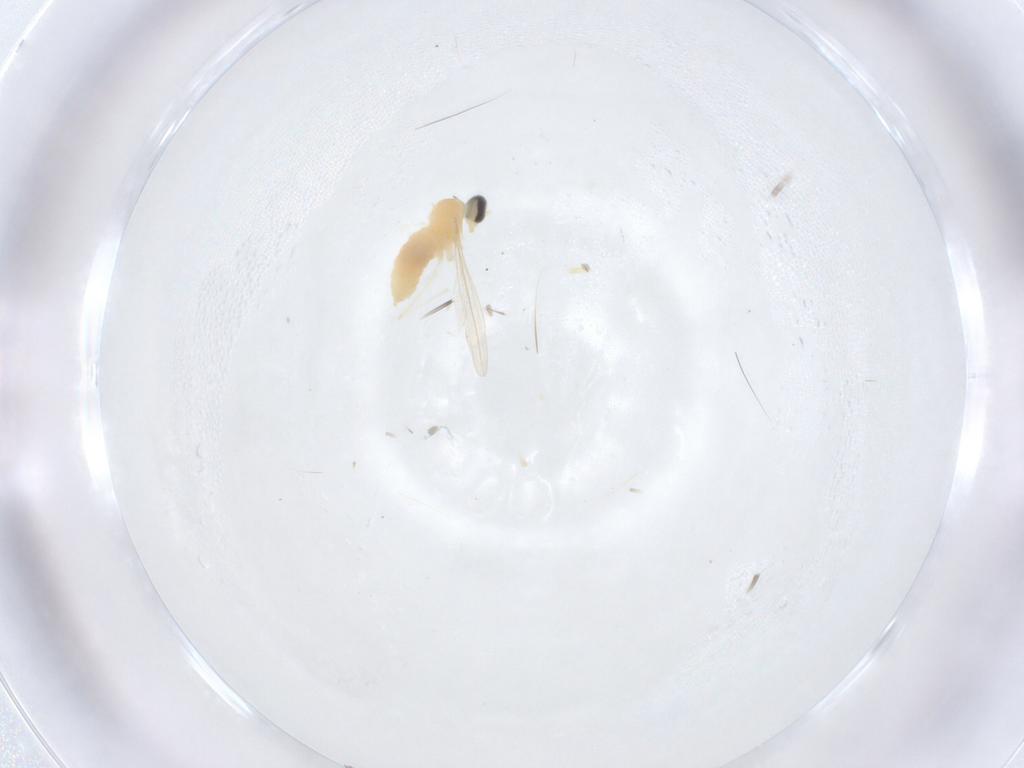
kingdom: Animalia
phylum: Arthropoda
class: Insecta
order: Diptera
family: Cecidomyiidae
